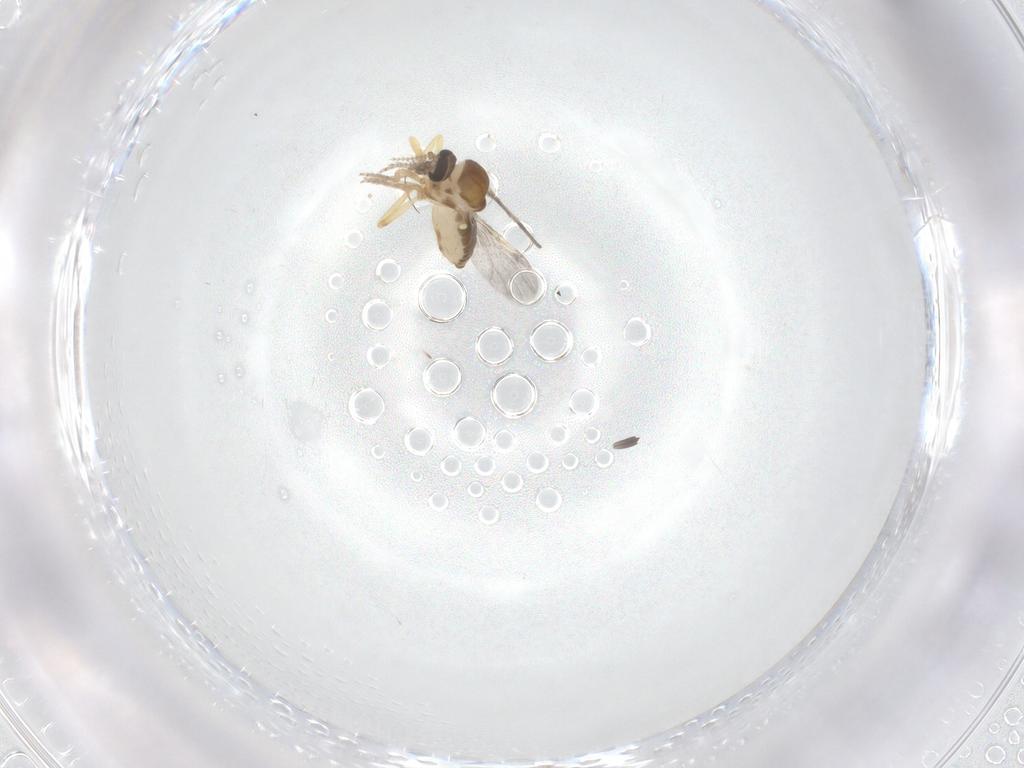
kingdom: Animalia
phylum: Arthropoda
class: Insecta
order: Diptera
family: Ceratopogonidae
